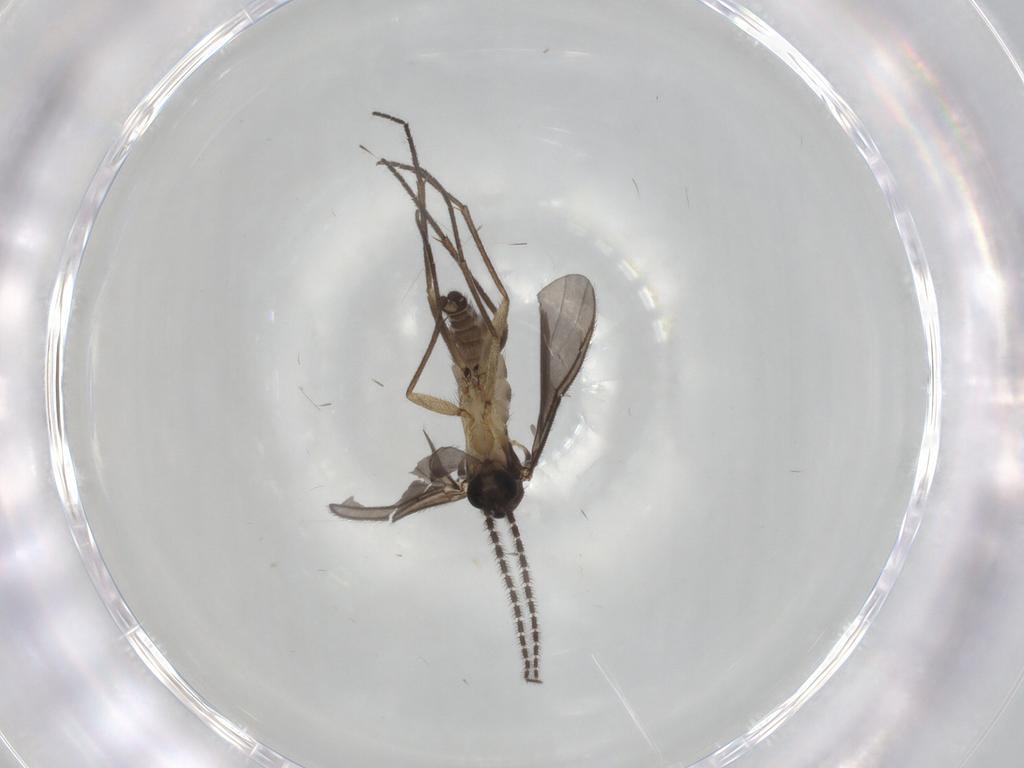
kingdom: Animalia
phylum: Arthropoda
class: Insecta
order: Diptera
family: Sciaridae
